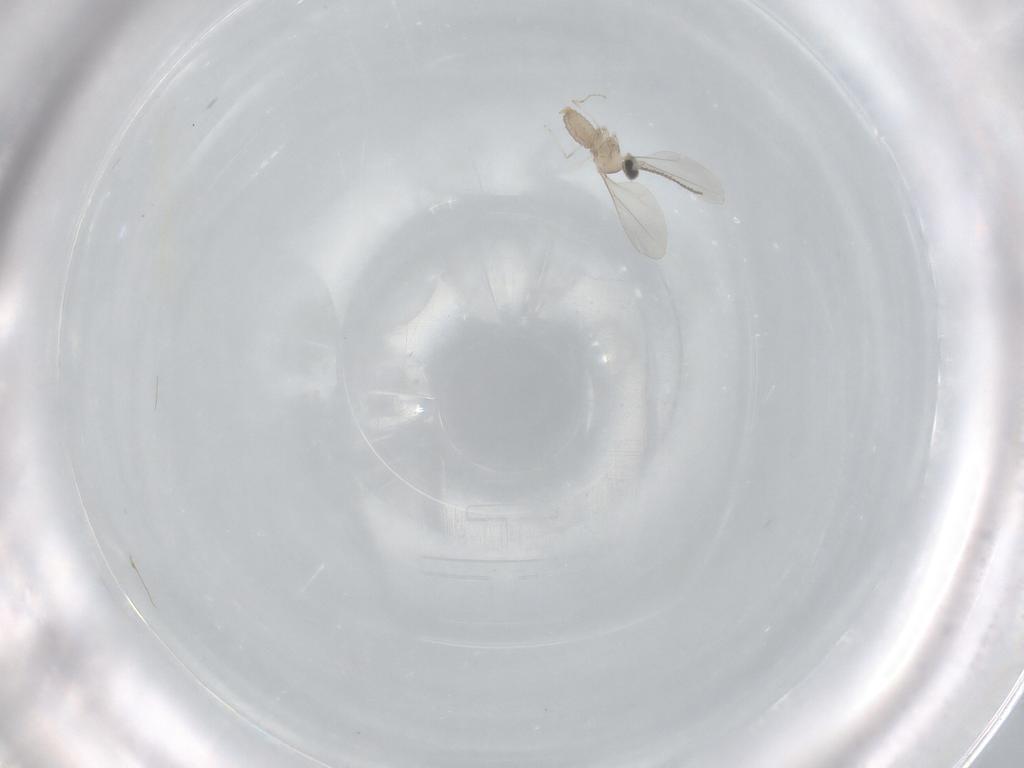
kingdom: Animalia
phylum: Arthropoda
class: Insecta
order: Diptera
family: Cecidomyiidae
